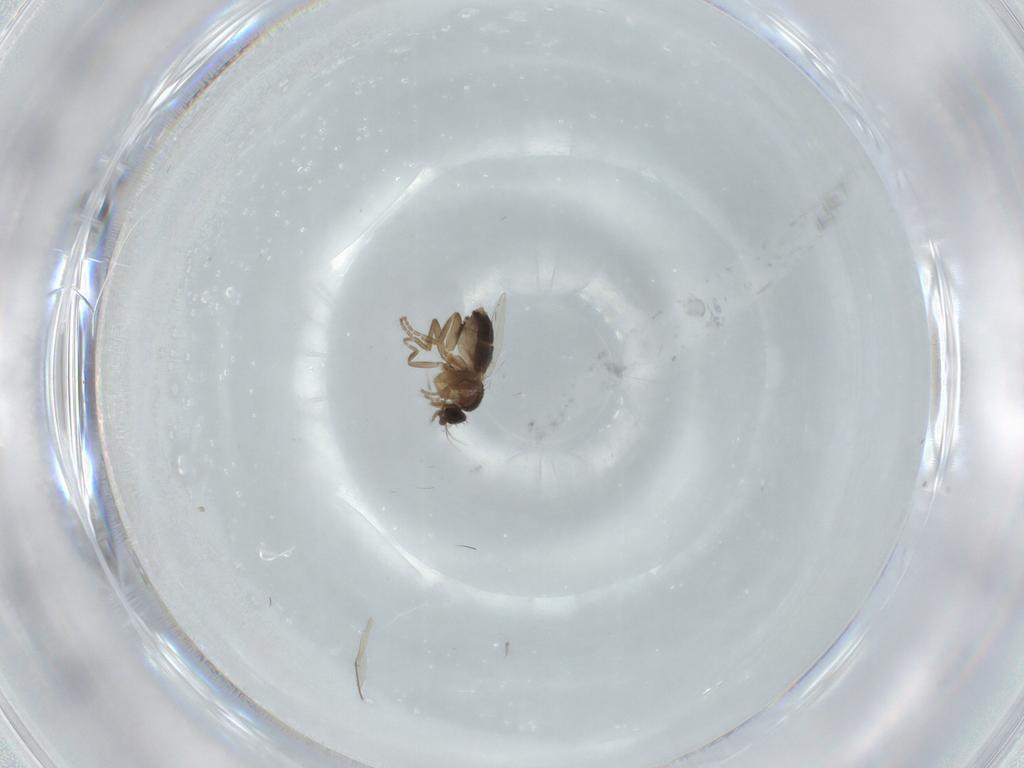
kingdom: Animalia
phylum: Arthropoda
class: Insecta
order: Diptera
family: Phoridae
